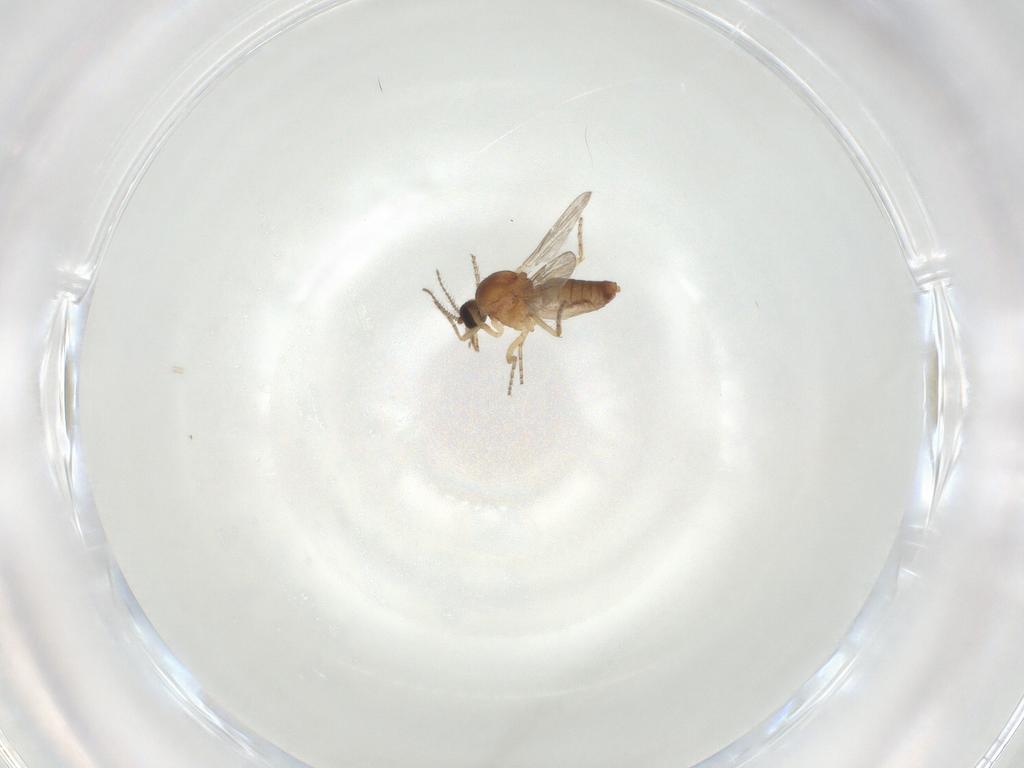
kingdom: Animalia
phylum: Arthropoda
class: Insecta
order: Diptera
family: Ceratopogonidae
